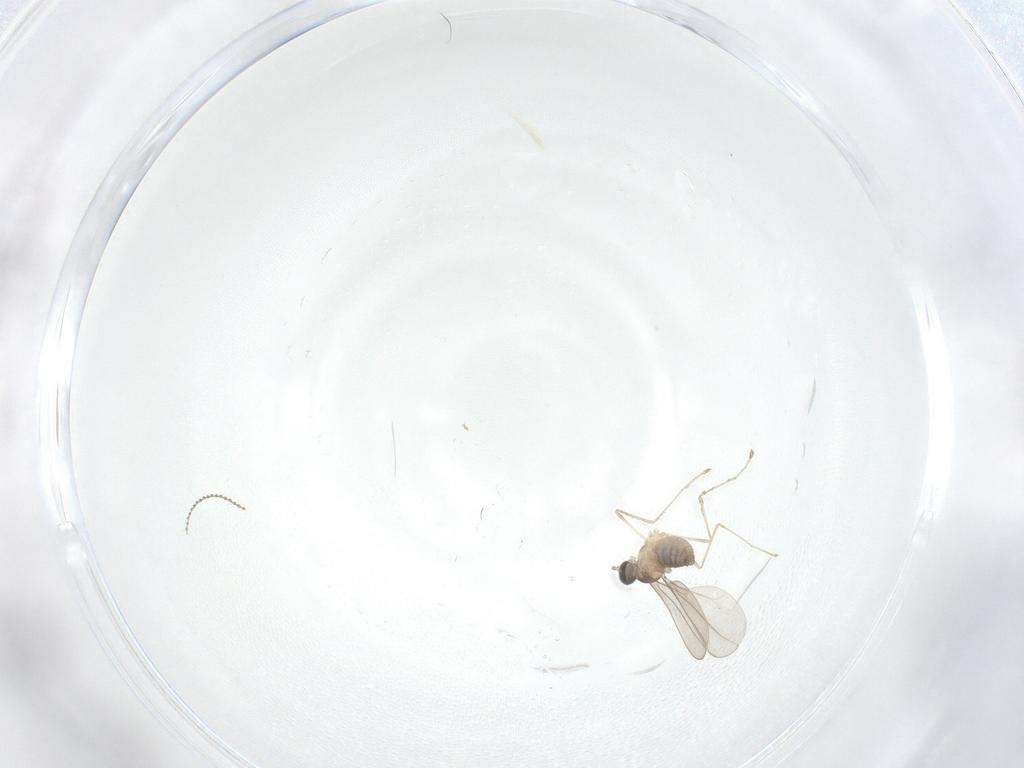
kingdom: Animalia
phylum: Arthropoda
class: Insecta
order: Diptera
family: Cecidomyiidae
